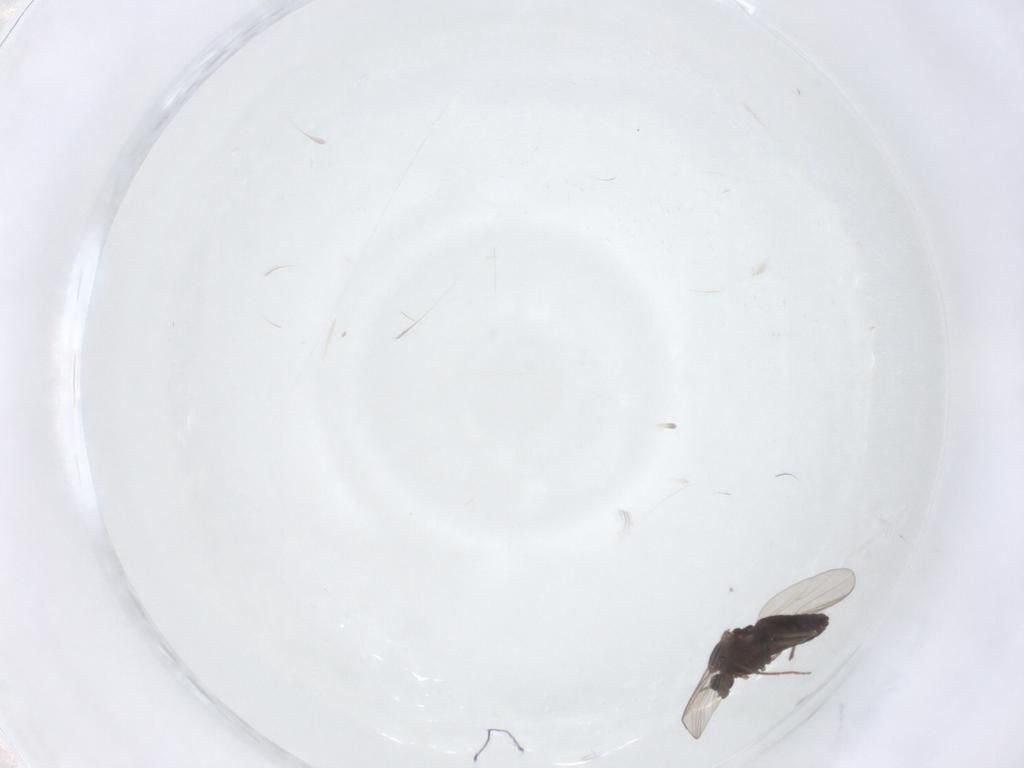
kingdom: Animalia
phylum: Arthropoda
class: Insecta
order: Diptera
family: Chironomidae
